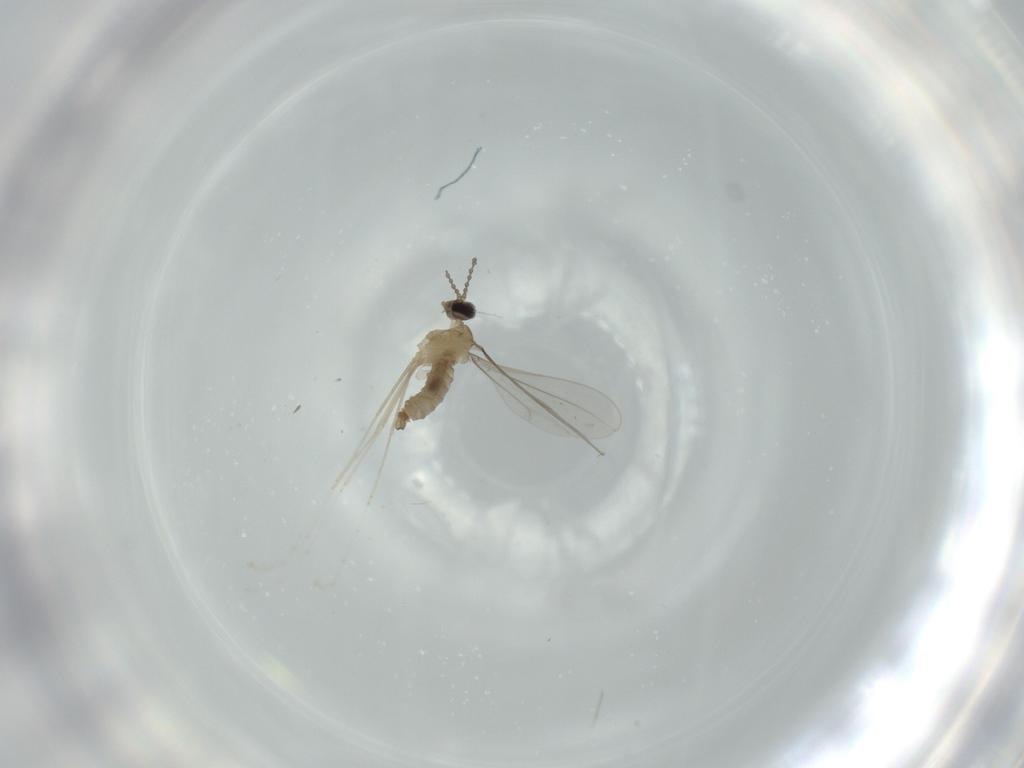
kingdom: Animalia
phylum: Arthropoda
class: Insecta
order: Diptera
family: Cecidomyiidae
